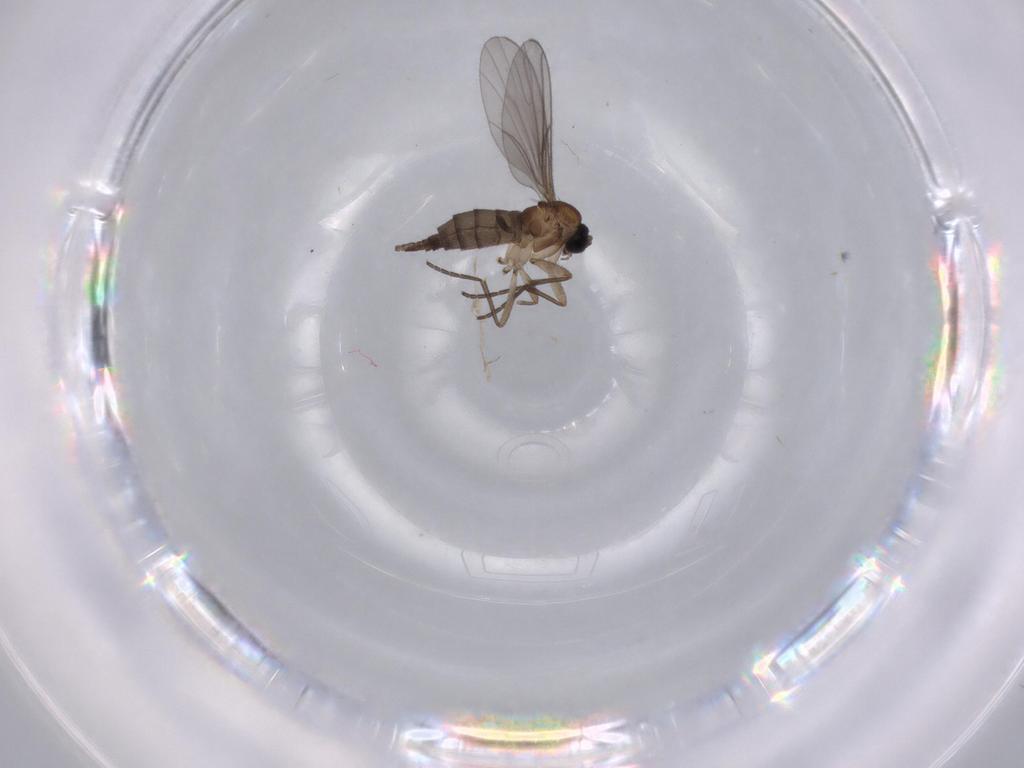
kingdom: Animalia
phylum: Arthropoda
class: Insecta
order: Diptera
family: Sciaridae
